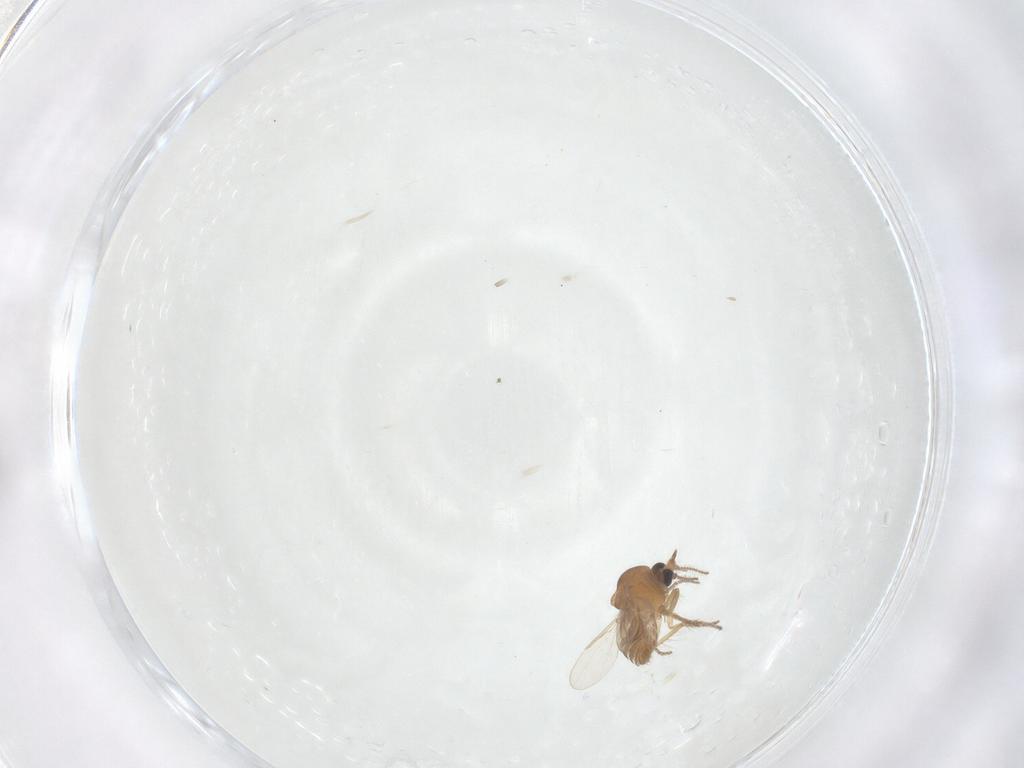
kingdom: Animalia
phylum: Arthropoda
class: Insecta
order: Diptera
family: Ceratopogonidae
